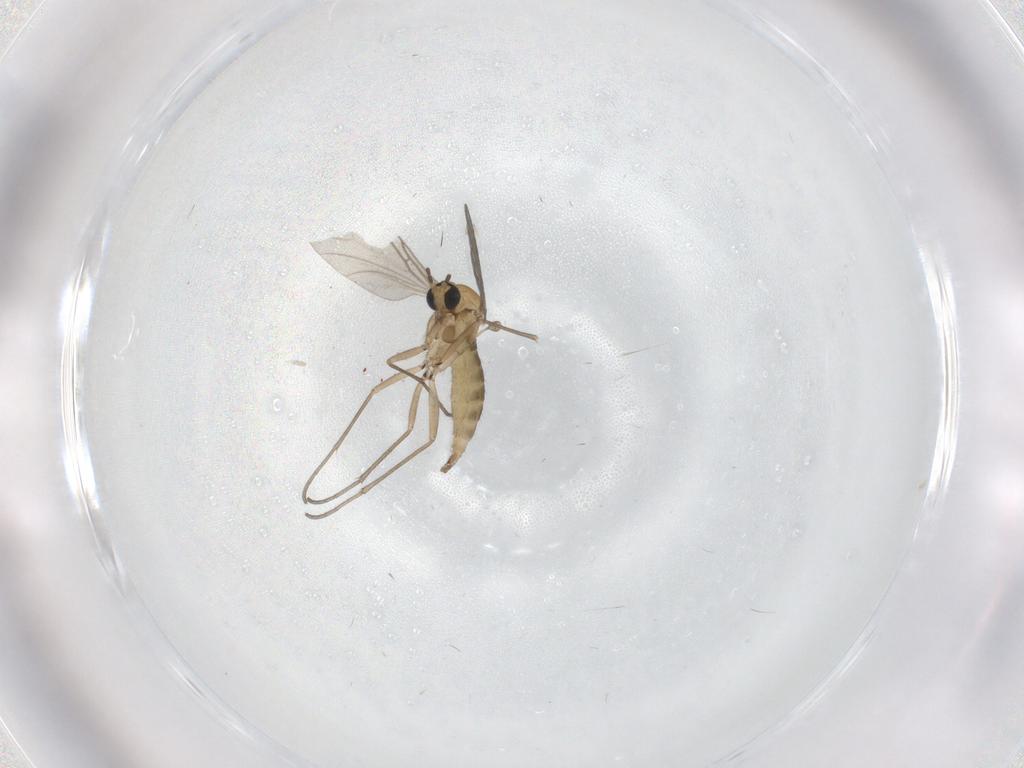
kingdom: Animalia
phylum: Arthropoda
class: Insecta
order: Diptera
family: Sciaridae
